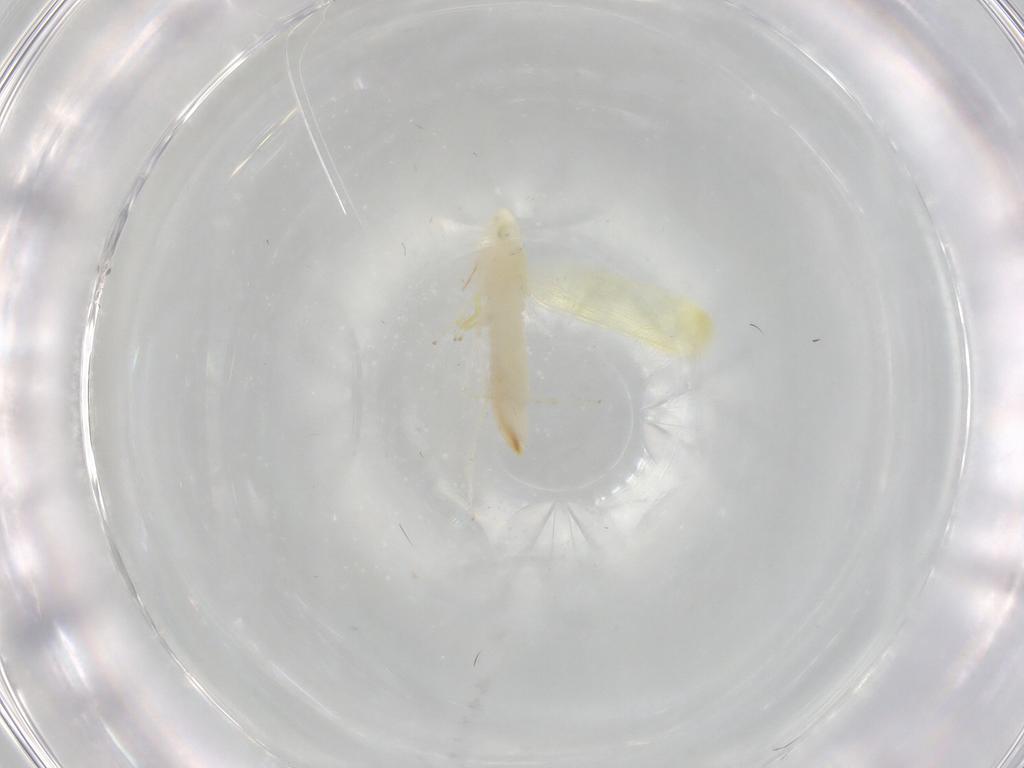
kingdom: Animalia
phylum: Arthropoda
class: Insecta
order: Hemiptera
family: Cicadellidae
